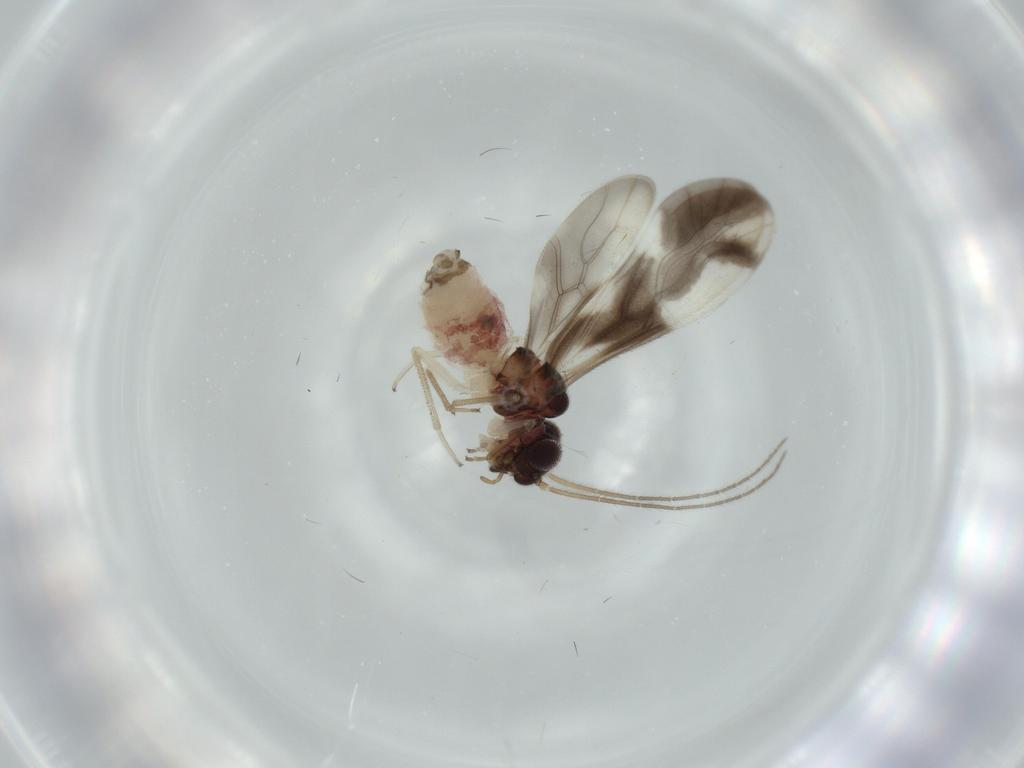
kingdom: Animalia
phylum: Arthropoda
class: Insecta
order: Psocodea
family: Caeciliusidae
